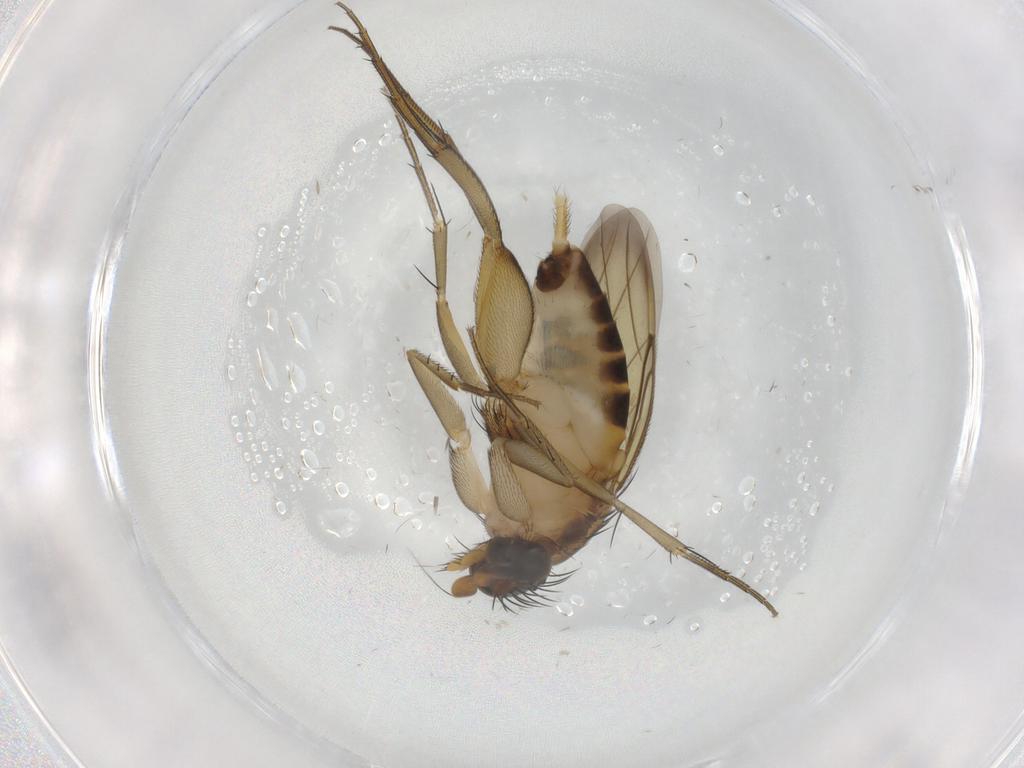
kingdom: Animalia
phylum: Arthropoda
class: Insecta
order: Diptera
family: Phoridae
